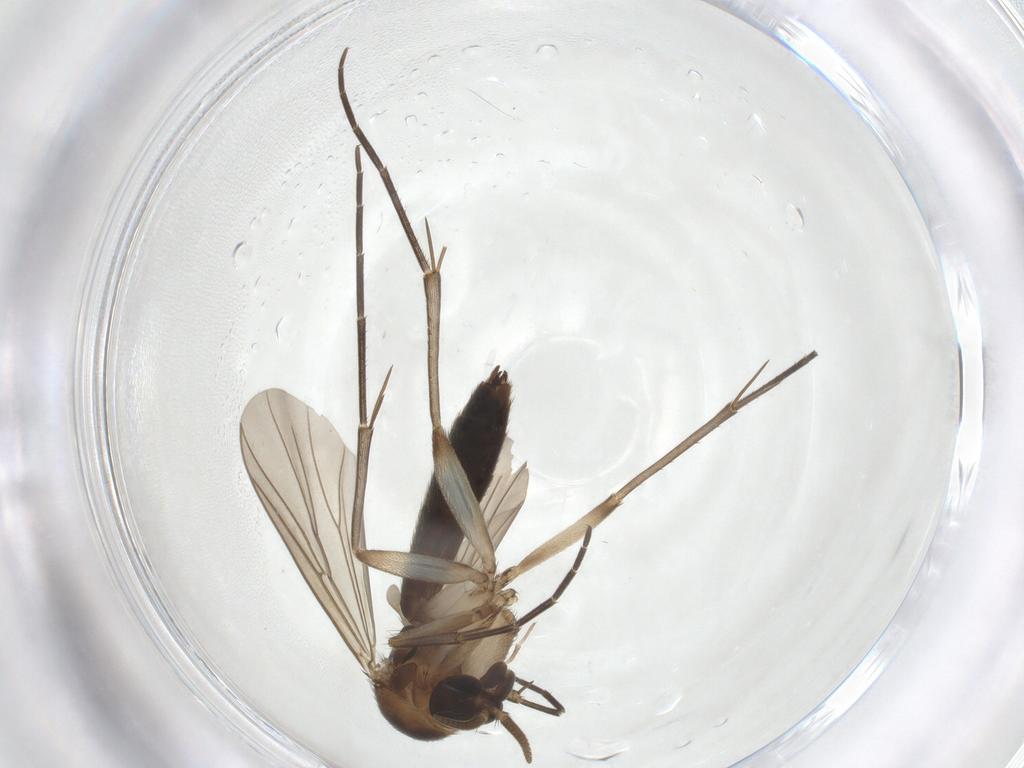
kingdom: Animalia
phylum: Arthropoda
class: Insecta
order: Diptera
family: Mycetophilidae
